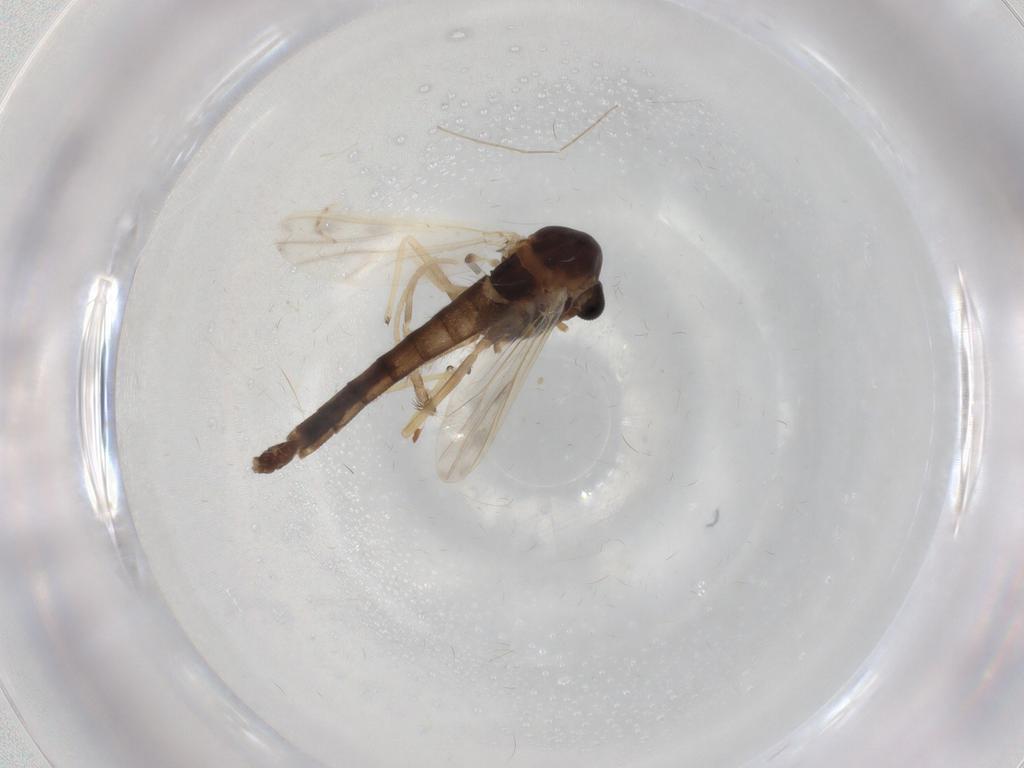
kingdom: Animalia
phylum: Arthropoda
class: Insecta
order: Diptera
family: Chironomidae
